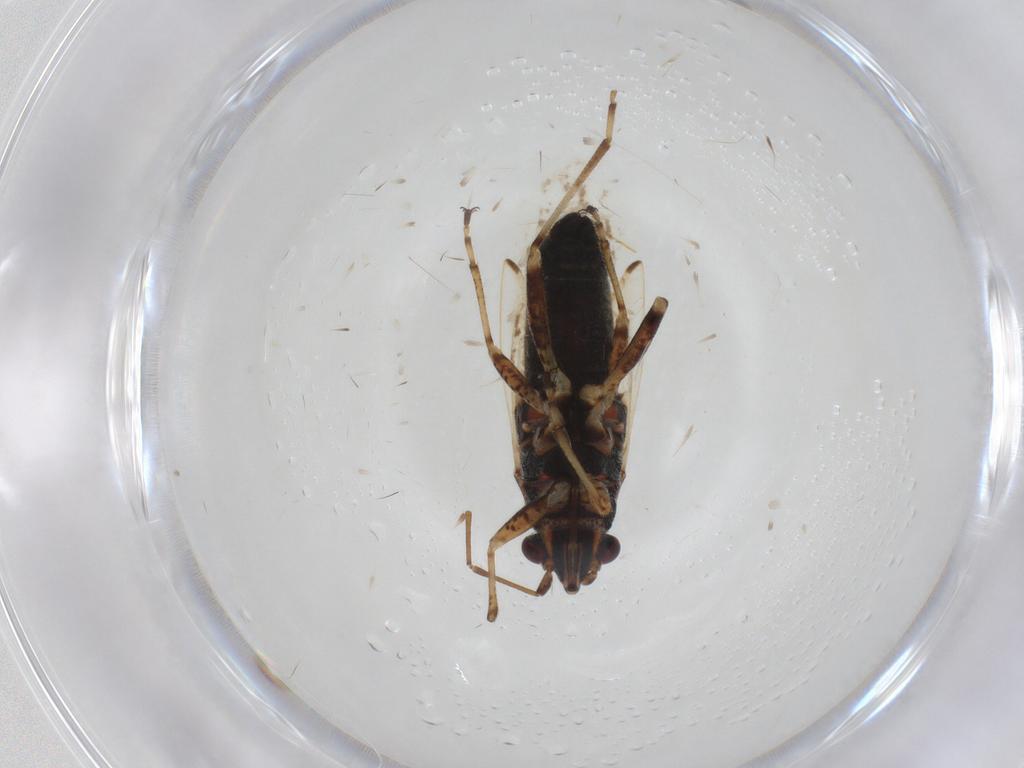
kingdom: Animalia
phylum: Arthropoda
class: Insecta
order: Hemiptera
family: Lygaeidae
